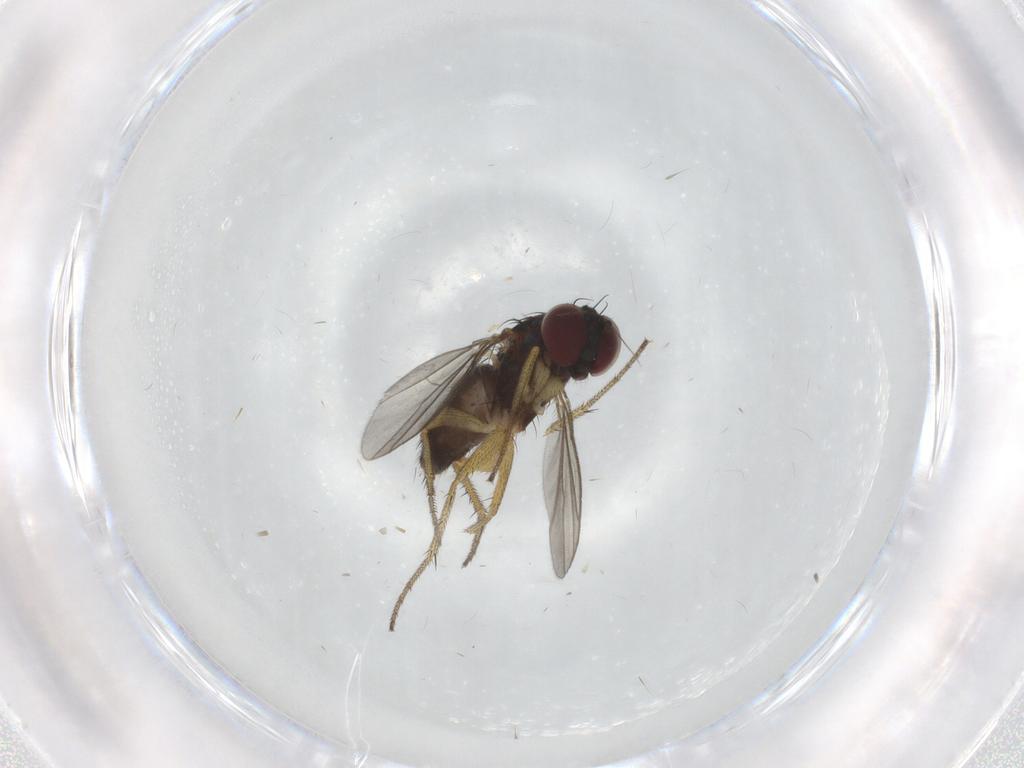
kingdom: Animalia
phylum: Arthropoda
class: Insecta
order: Diptera
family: Dolichopodidae
